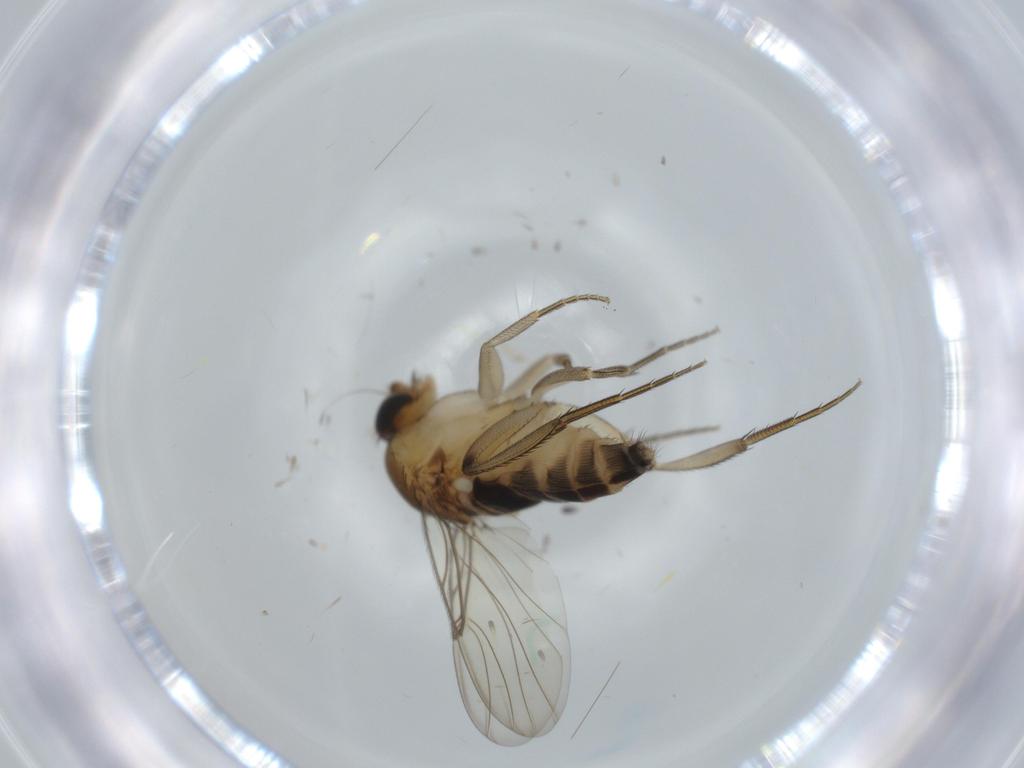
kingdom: Animalia
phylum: Arthropoda
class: Insecta
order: Diptera
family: Phoridae
